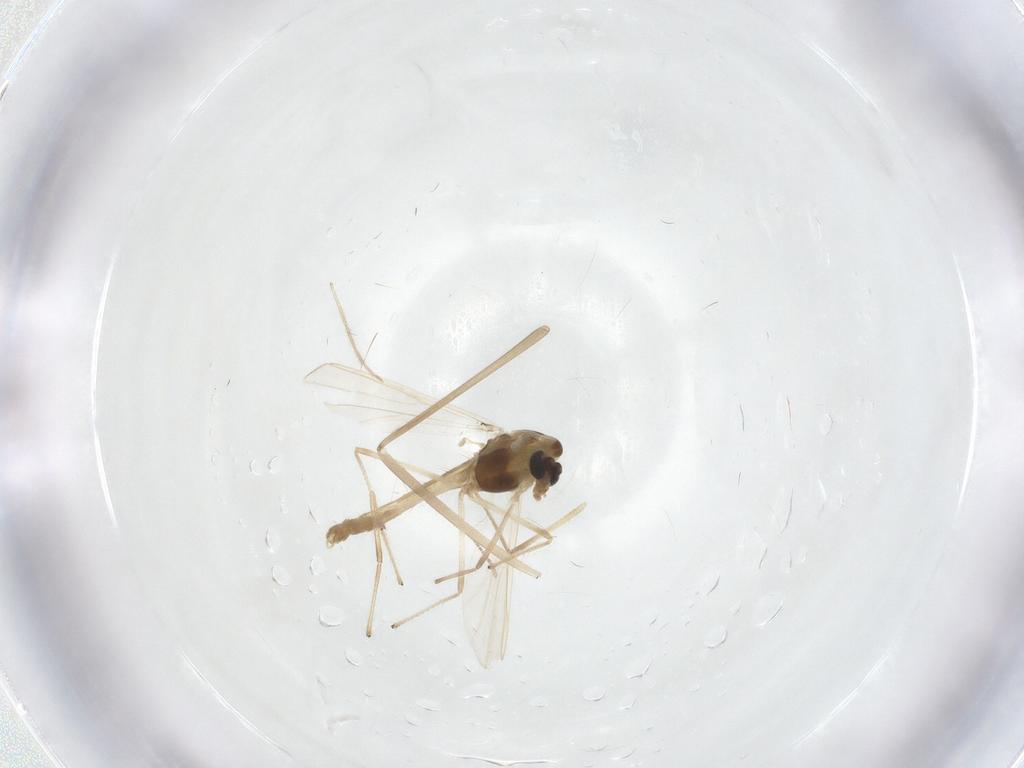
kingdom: Animalia
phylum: Arthropoda
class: Insecta
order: Diptera
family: Chironomidae
